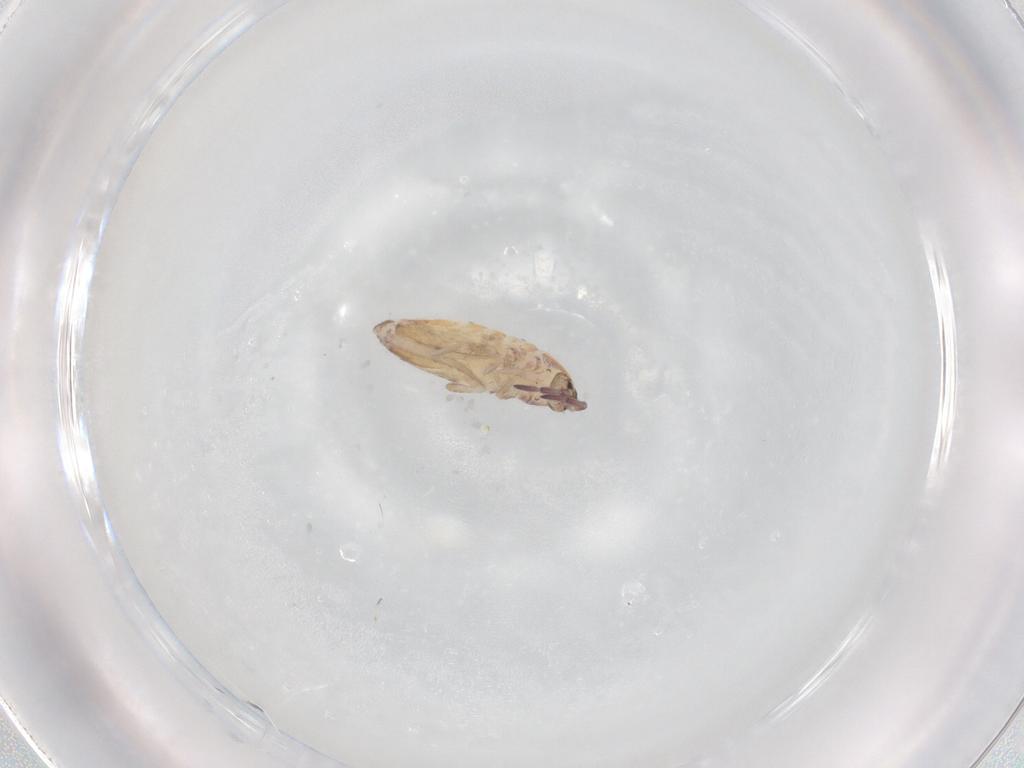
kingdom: Animalia
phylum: Arthropoda
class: Collembola
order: Entomobryomorpha
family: Entomobryidae
